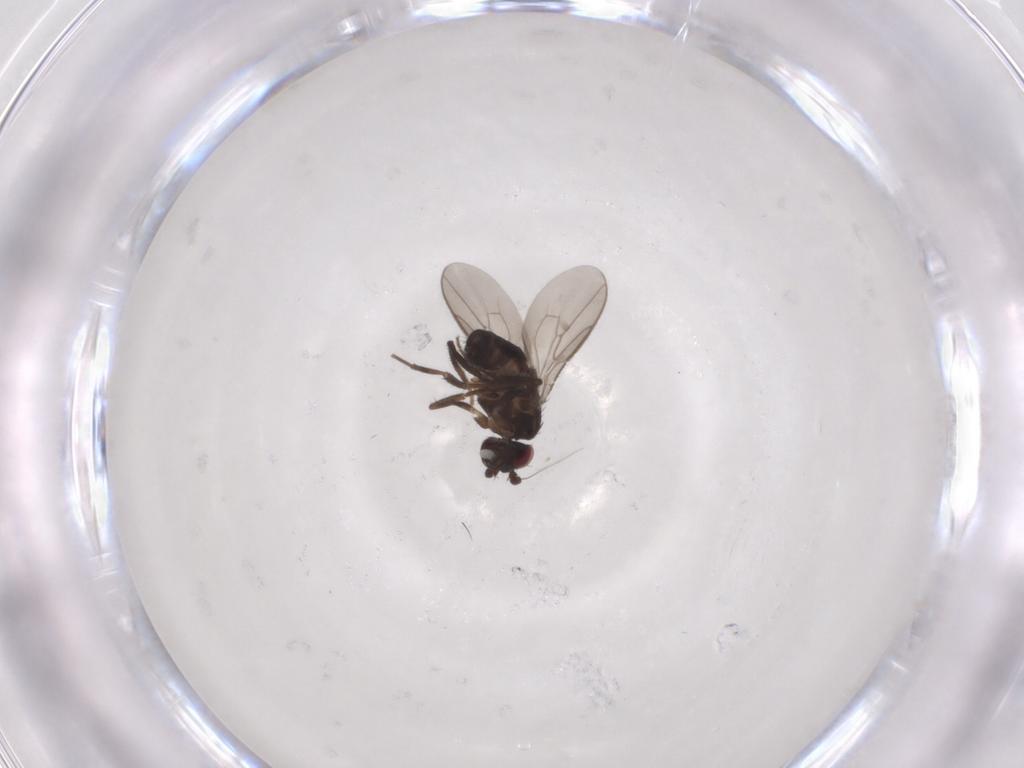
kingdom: Animalia
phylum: Arthropoda
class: Insecta
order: Diptera
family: Sphaeroceridae
